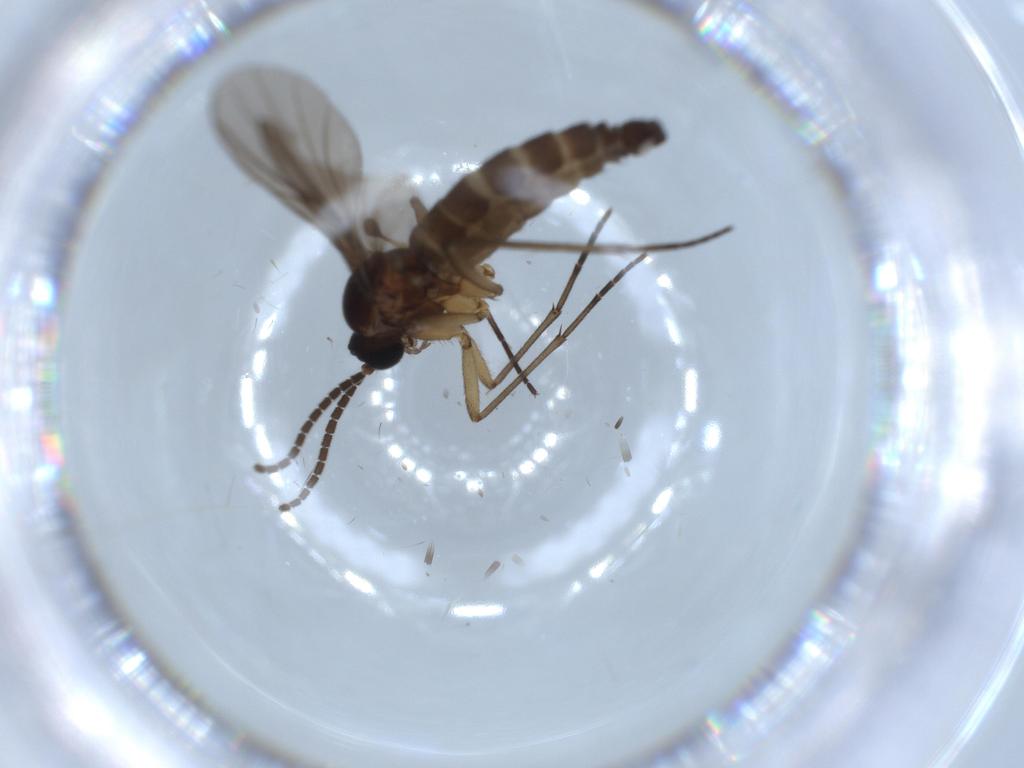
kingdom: Animalia
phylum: Arthropoda
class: Insecta
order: Diptera
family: Sciaridae
